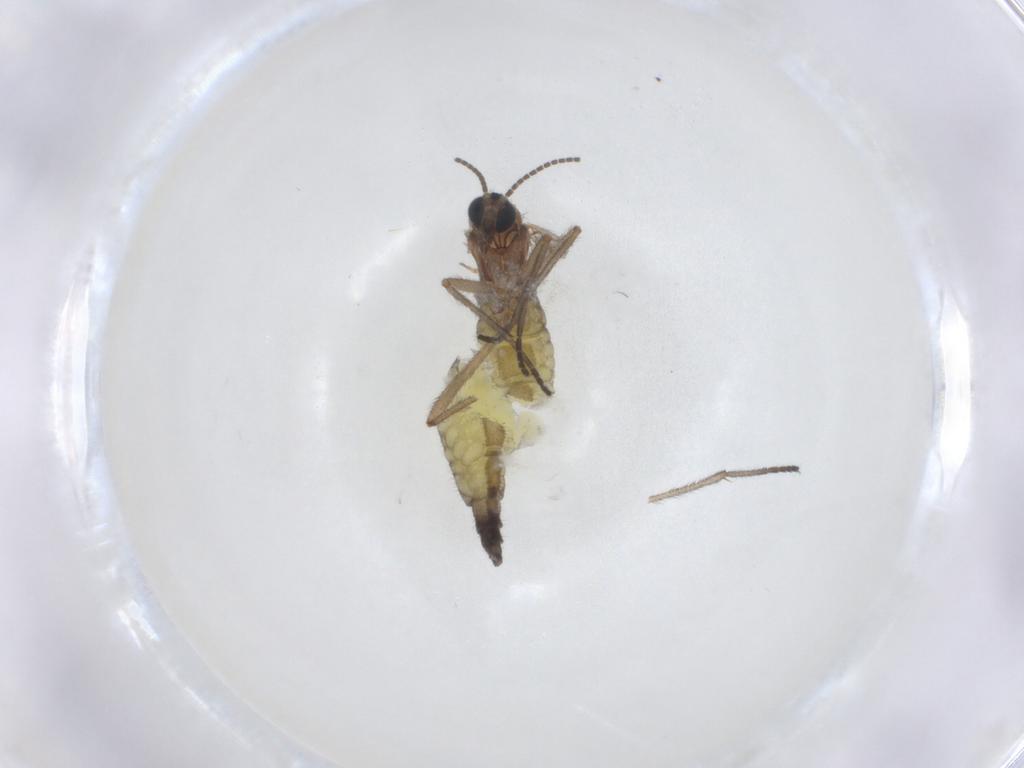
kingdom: Animalia
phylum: Arthropoda
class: Insecta
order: Diptera
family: Sciaridae
